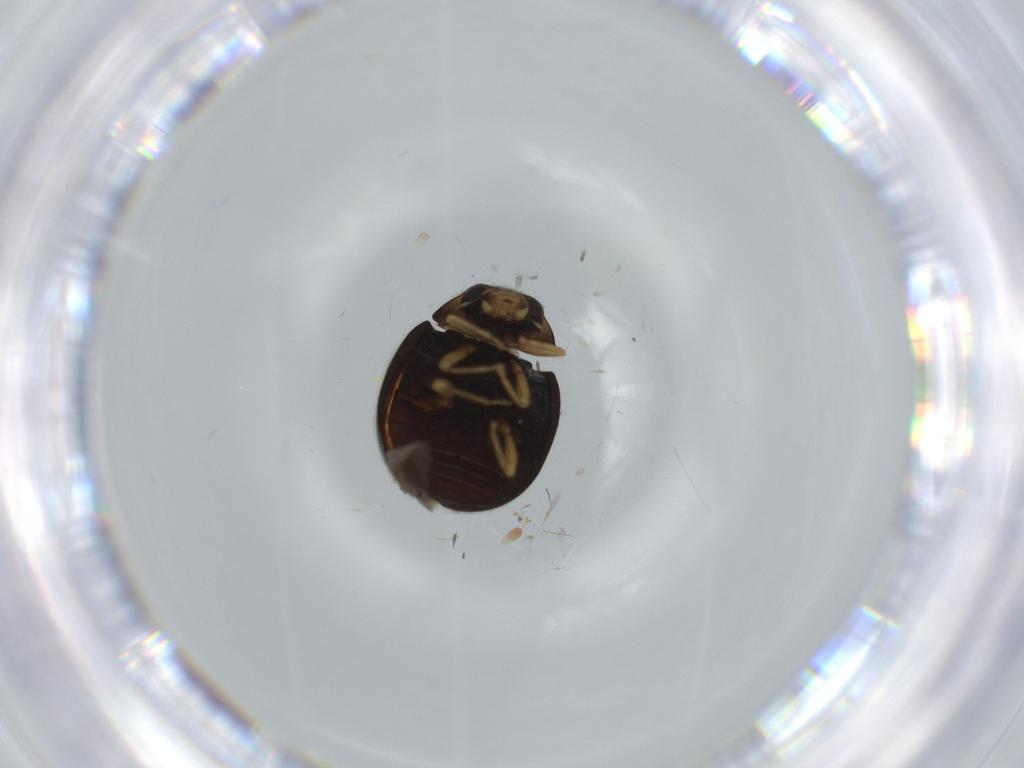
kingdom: Animalia
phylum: Arthropoda
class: Insecta
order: Coleoptera
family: Coccinellidae
